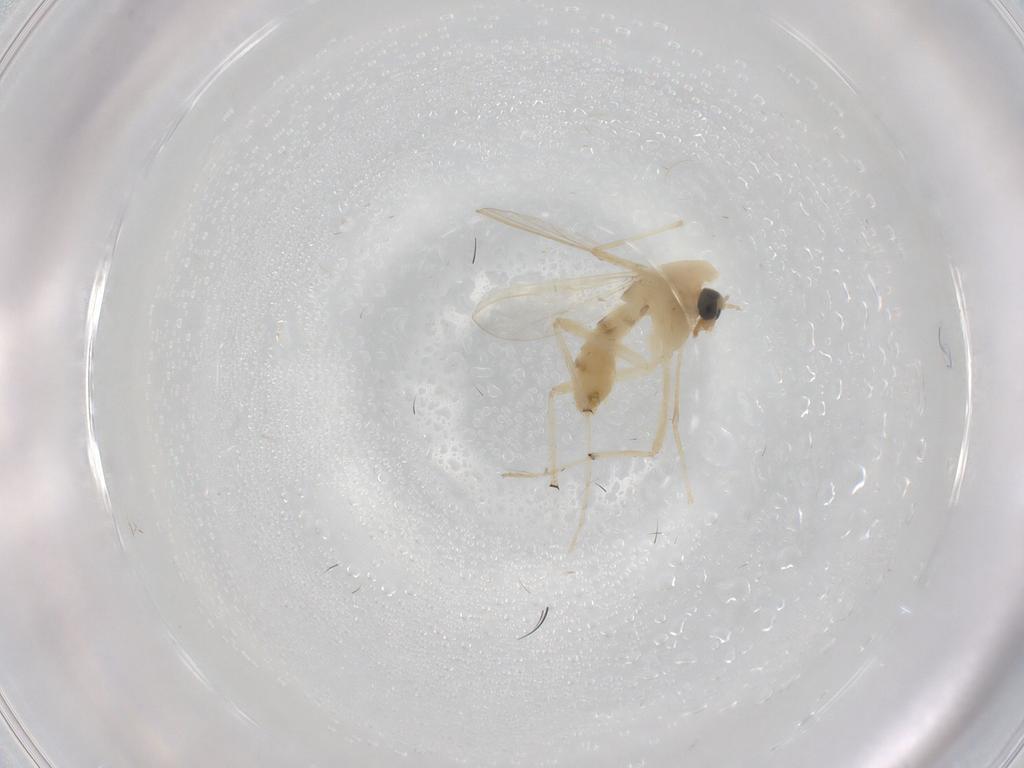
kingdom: Animalia
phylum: Arthropoda
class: Insecta
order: Diptera
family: Chironomidae
